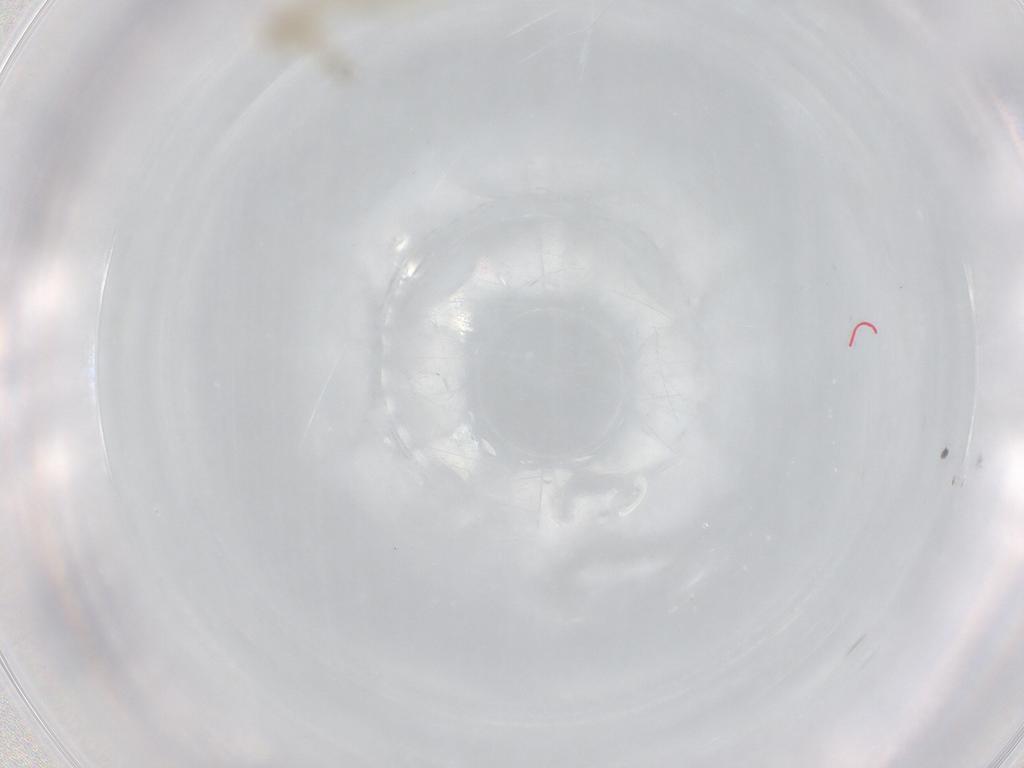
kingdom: Animalia
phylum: Arthropoda
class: Insecta
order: Diptera
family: Chironomidae
